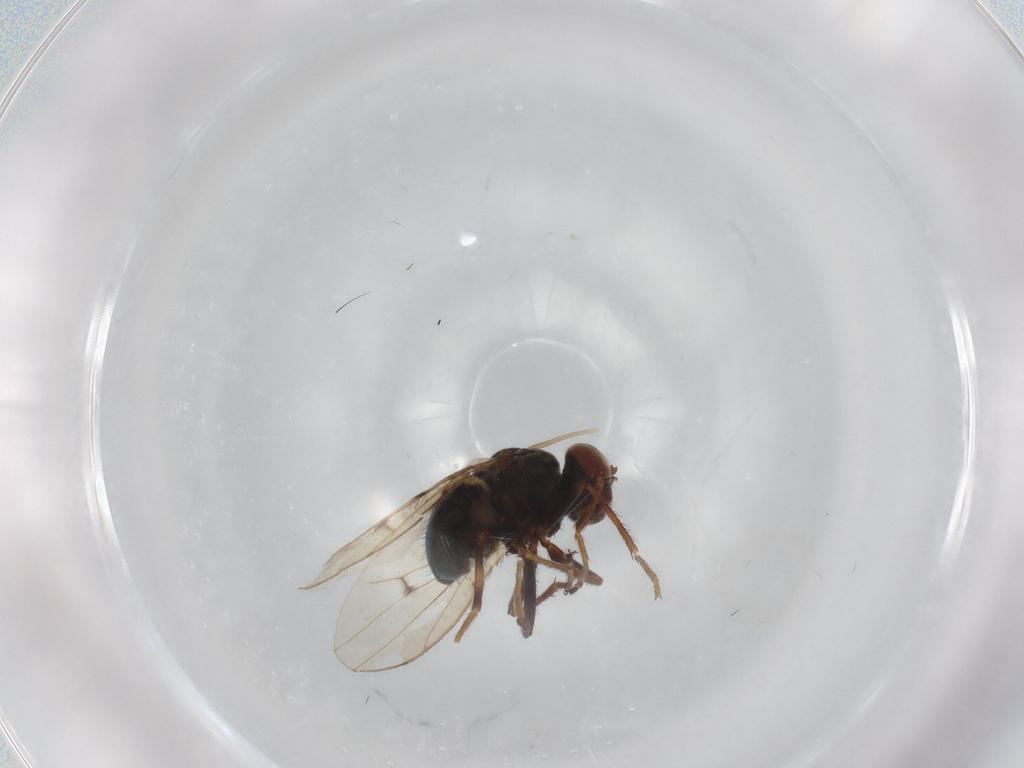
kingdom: Animalia
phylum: Arthropoda
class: Insecta
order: Diptera
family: Ephydridae
